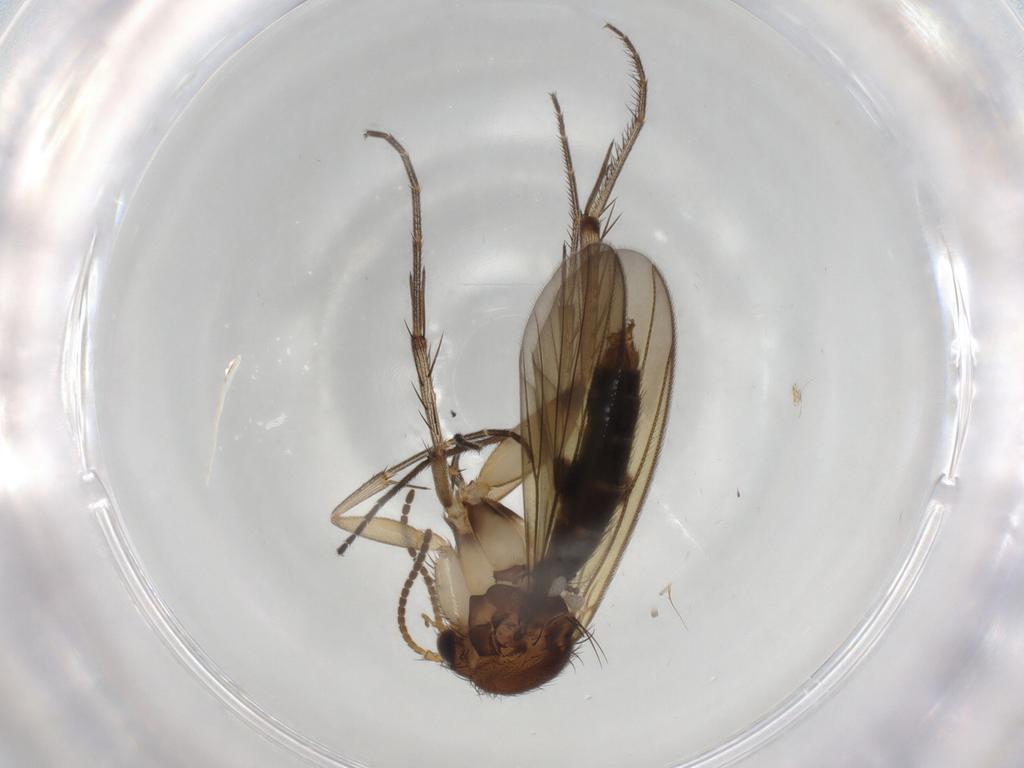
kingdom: Animalia
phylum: Arthropoda
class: Insecta
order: Diptera
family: Mycetophilidae
